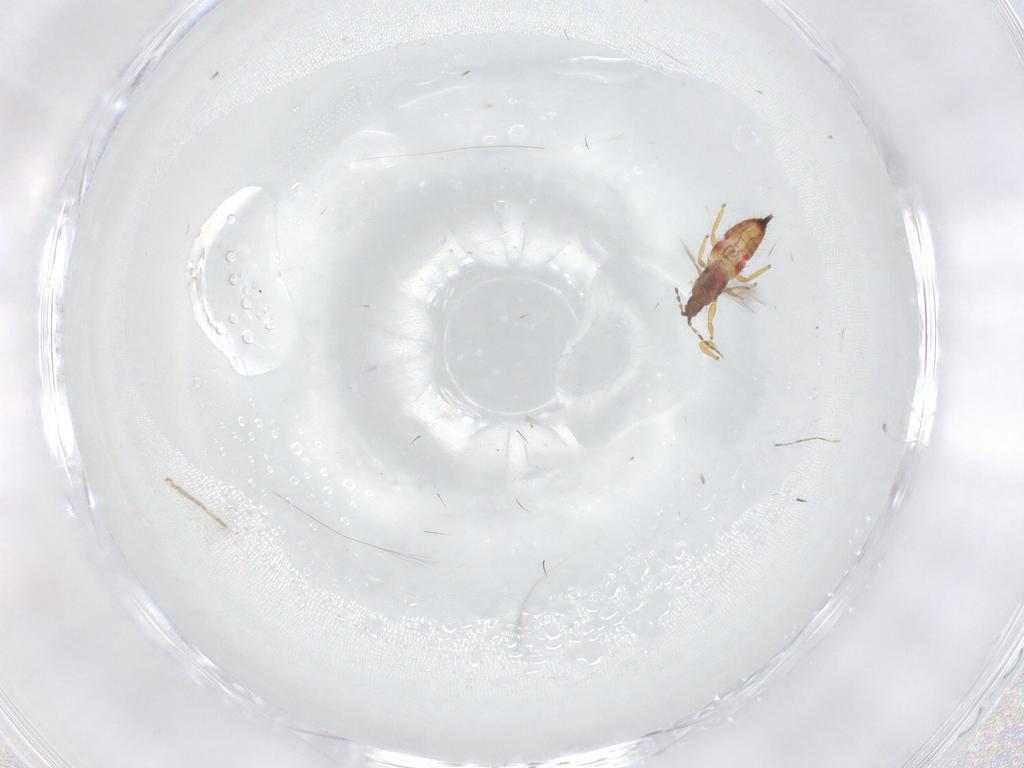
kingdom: Animalia
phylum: Arthropoda
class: Insecta
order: Thysanoptera
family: Phlaeothripidae
